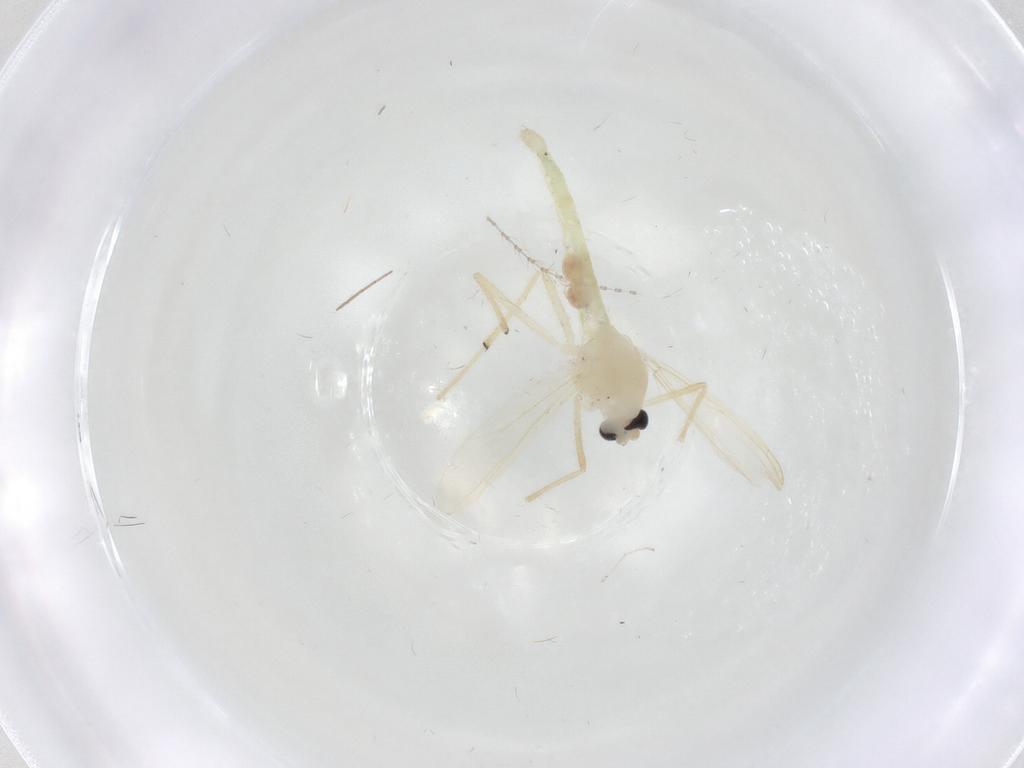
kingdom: Animalia
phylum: Arthropoda
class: Insecta
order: Diptera
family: Chironomidae
